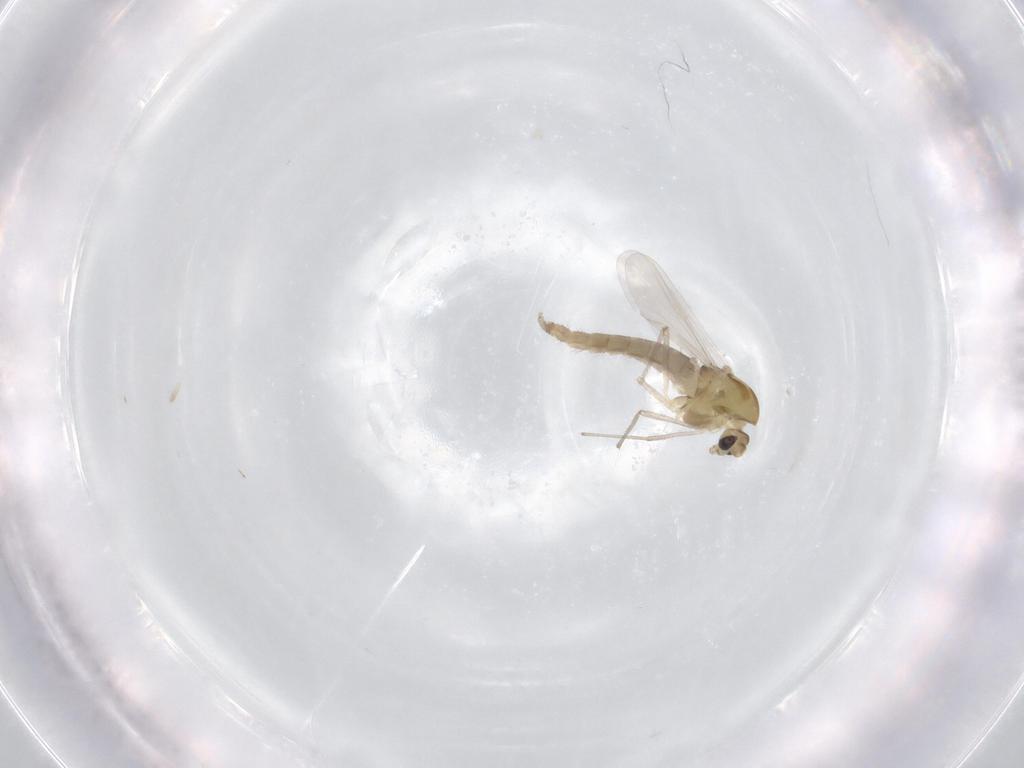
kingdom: Animalia
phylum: Arthropoda
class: Insecta
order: Diptera
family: Chironomidae
